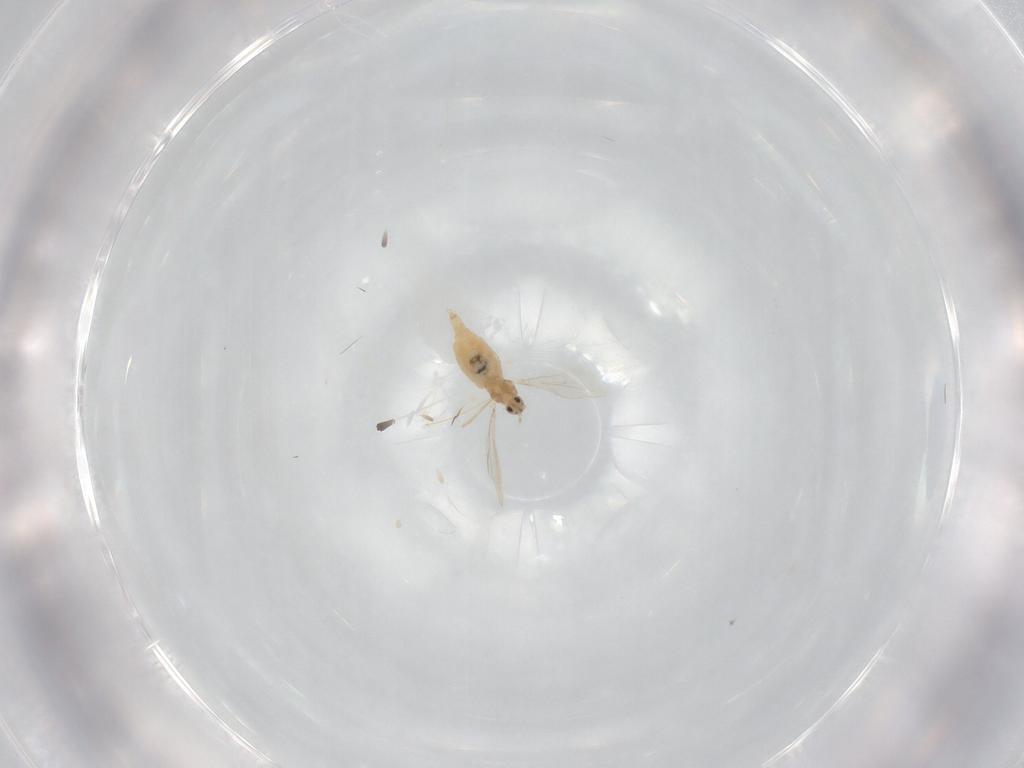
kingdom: Animalia
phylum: Arthropoda
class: Insecta
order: Diptera
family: Cecidomyiidae
